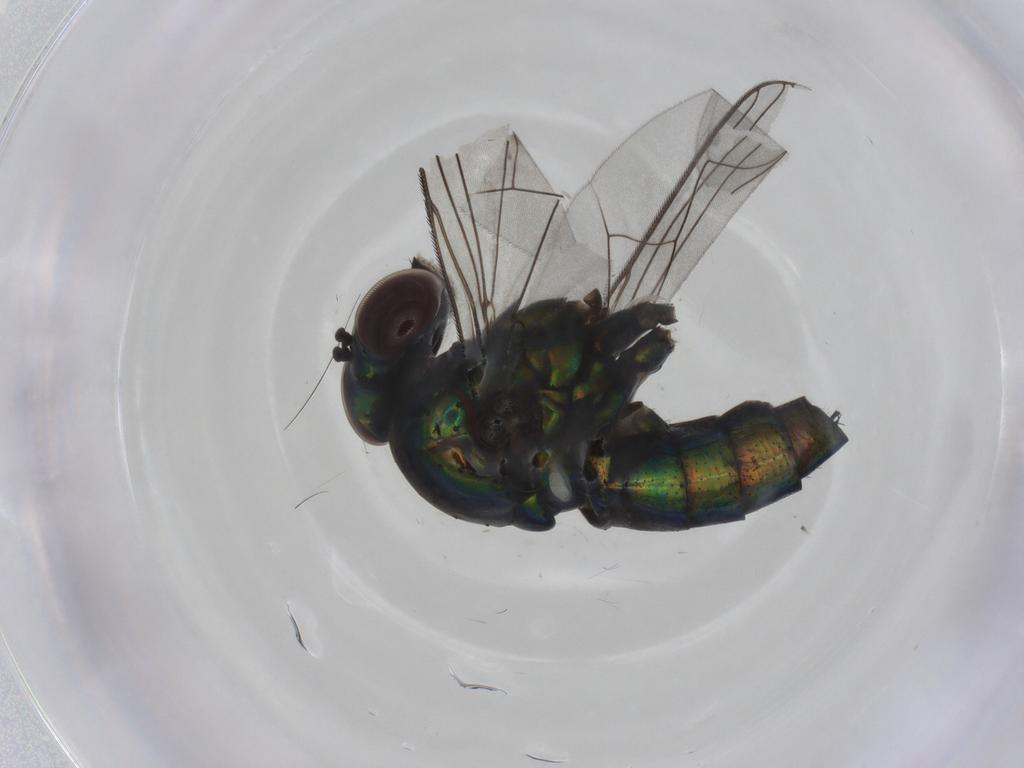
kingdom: Animalia
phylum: Arthropoda
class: Insecta
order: Diptera
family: Dolichopodidae
